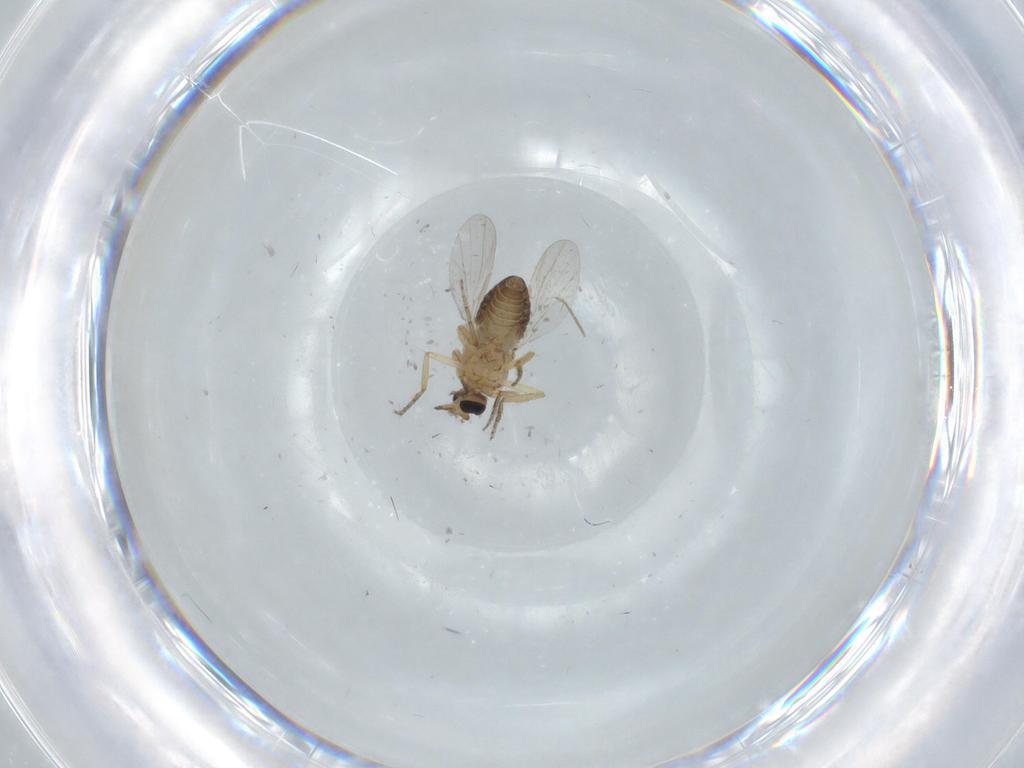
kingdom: Animalia
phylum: Arthropoda
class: Insecta
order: Diptera
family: Ceratopogonidae
